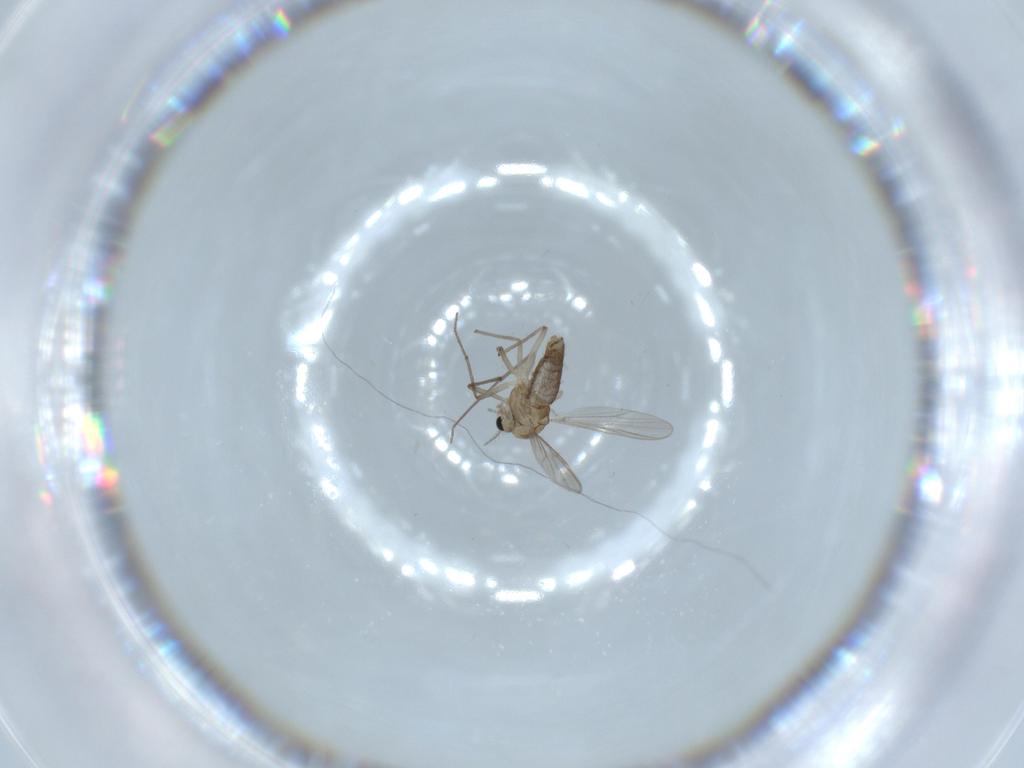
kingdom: Animalia
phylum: Arthropoda
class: Insecta
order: Diptera
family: Chironomidae
